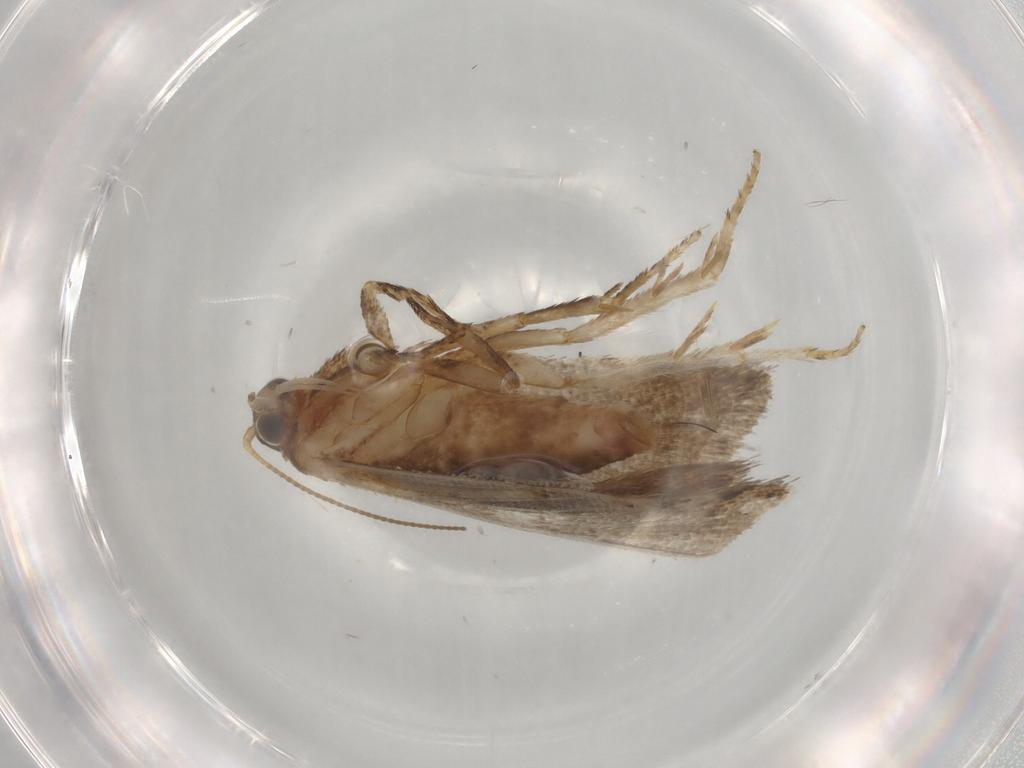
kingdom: Animalia
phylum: Arthropoda
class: Insecta
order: Lepidoptera
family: Tortricidae
